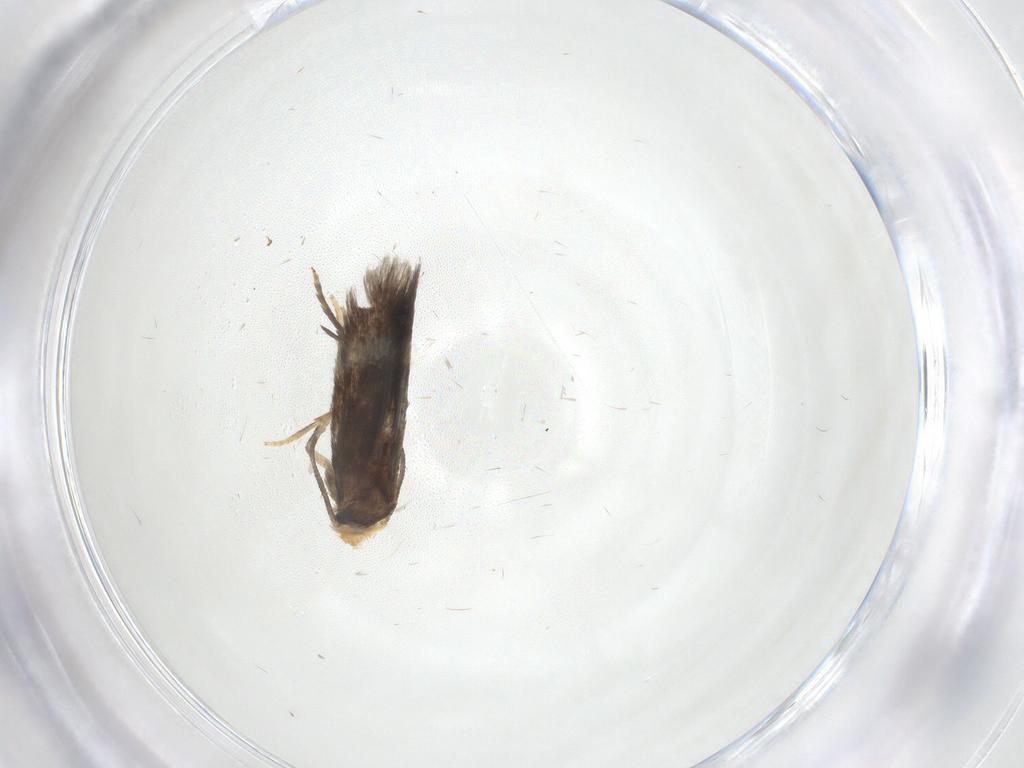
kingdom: Animalia
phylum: Arthropoda
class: Insecta
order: Lepidoptera
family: Nepticulidae
